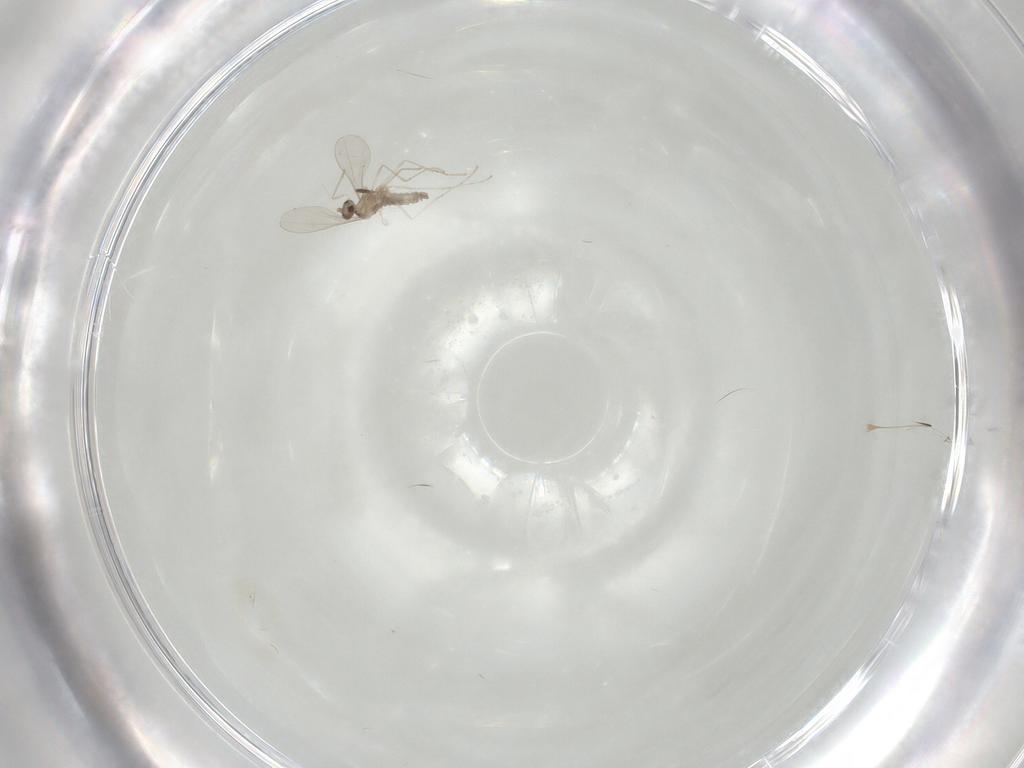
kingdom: Animalia
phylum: Arthropoda
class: Insecta
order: Diptera
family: Cecidomyiidae
